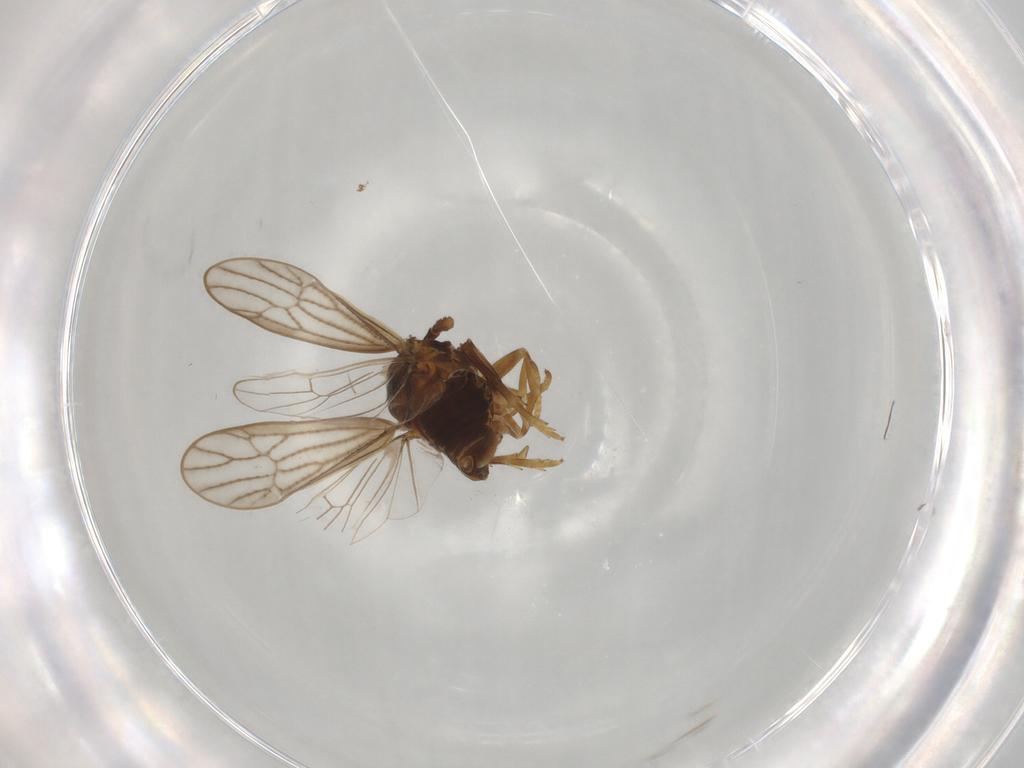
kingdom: Animalia
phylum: Arthropoda
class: Insecta
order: Hemiptera
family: Delphacidae
